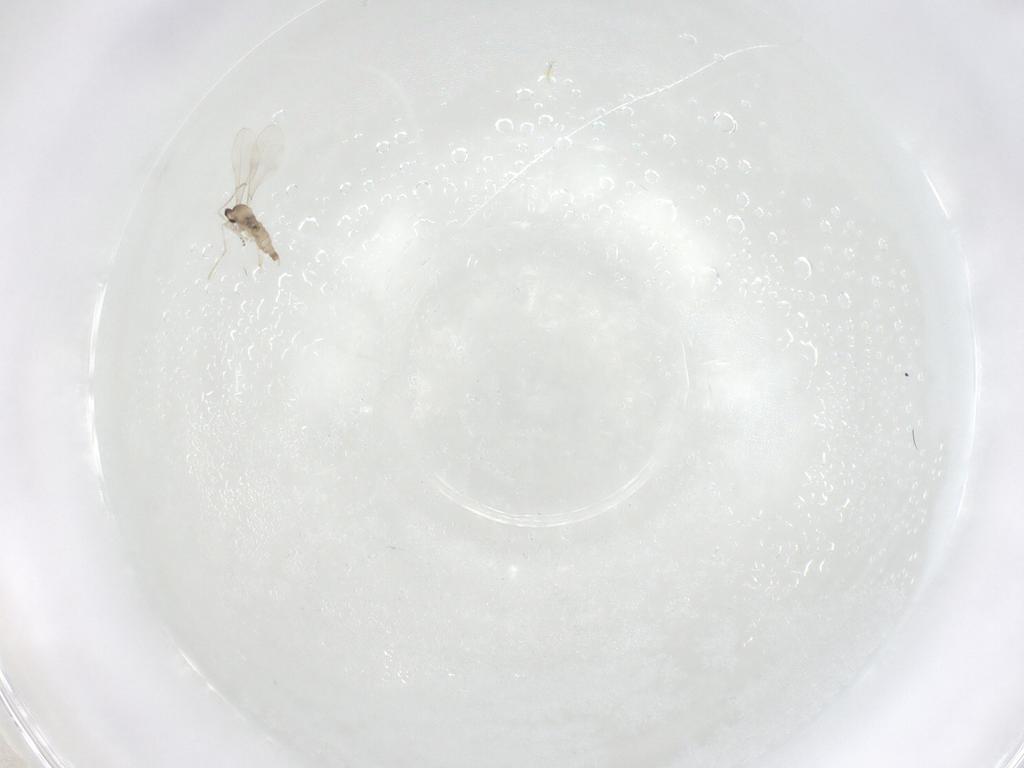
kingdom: Animalia
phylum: Arthropoda
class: Insecta
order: Diptera
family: Cecidomyiidae
